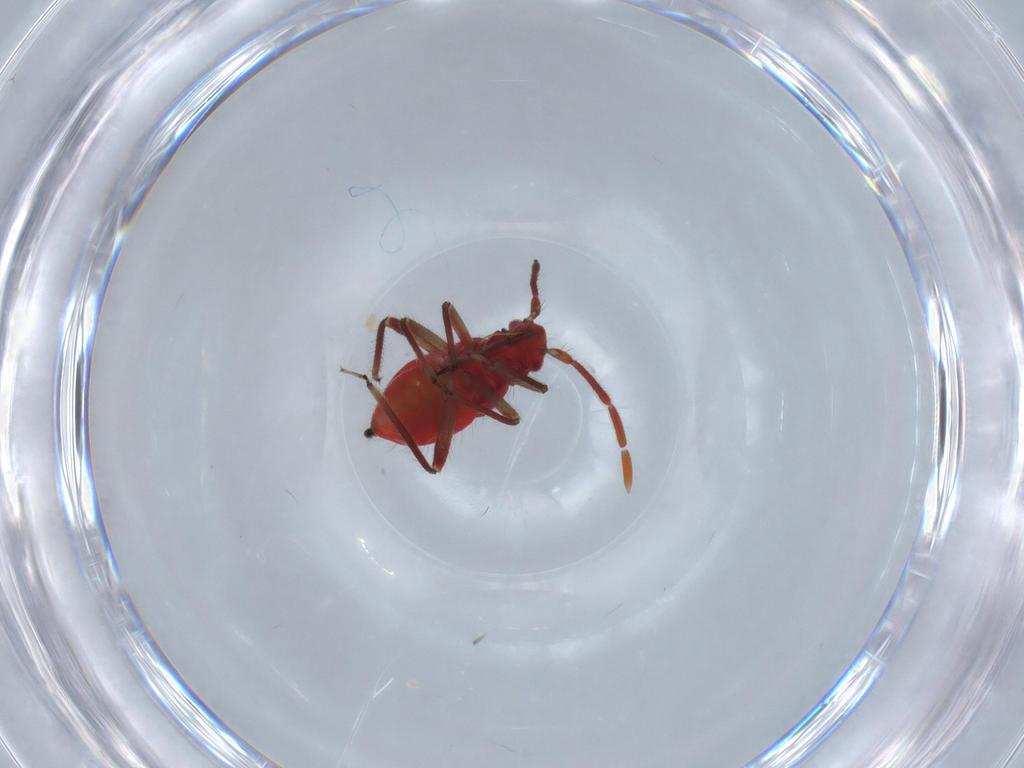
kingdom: Animalia
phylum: Arthropoda
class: Insecta
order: Hemiptera
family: Miridae
